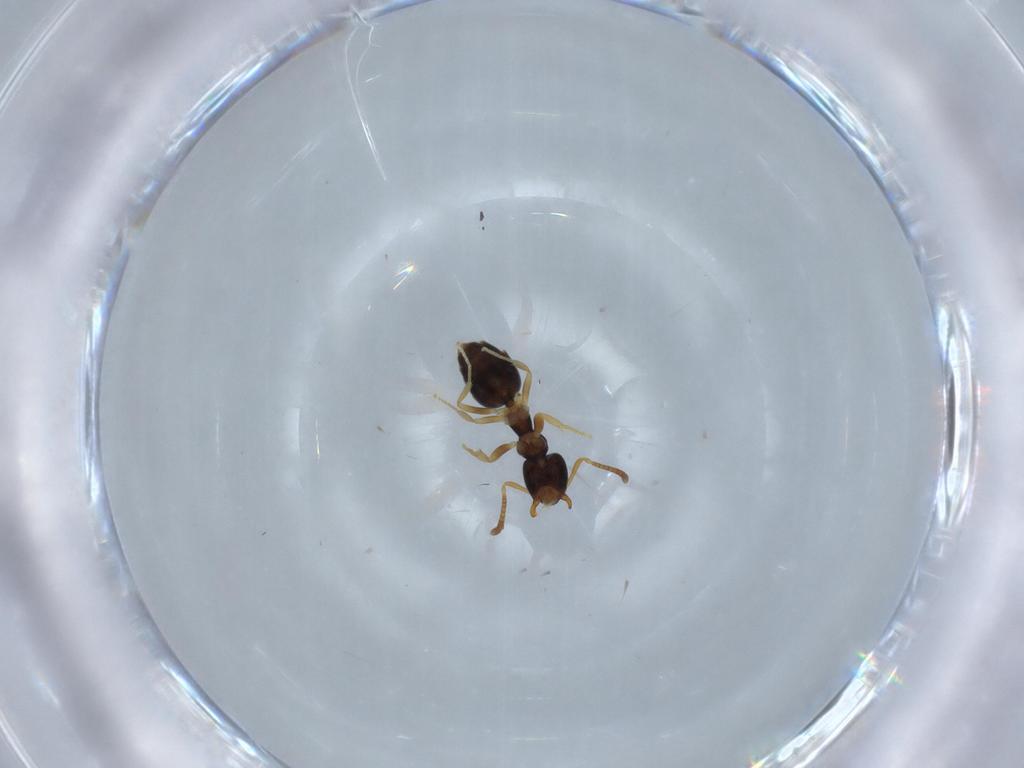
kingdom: Animalia
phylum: Arthropoda
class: Insecta
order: Hymenoptera
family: Formicidae
